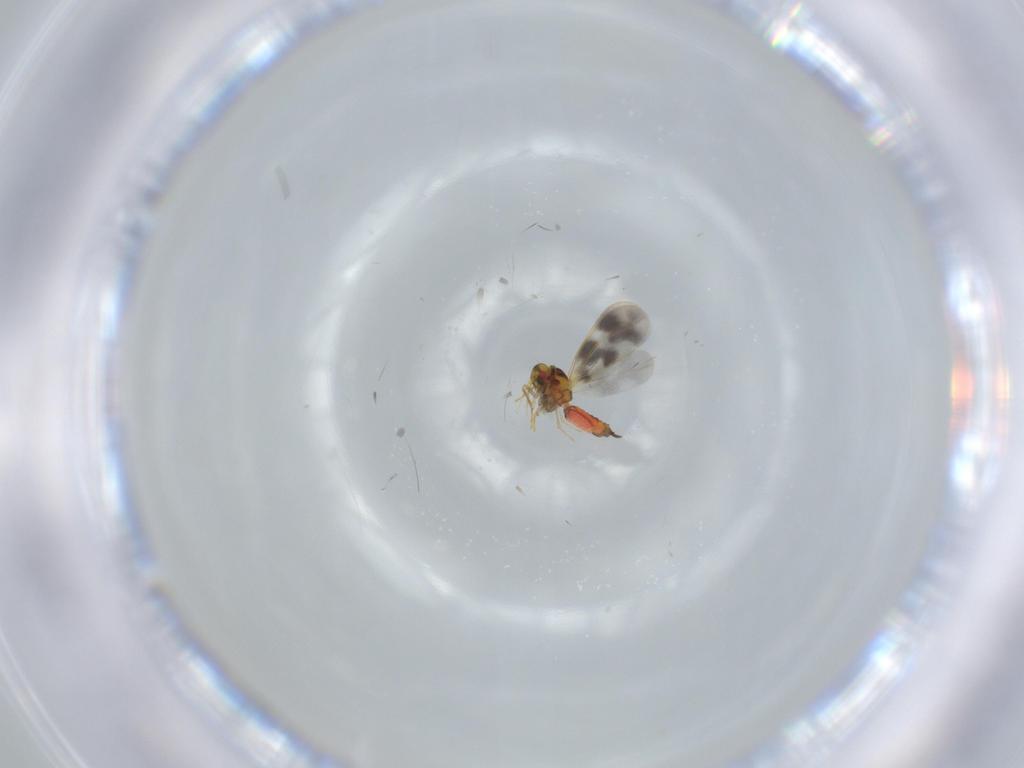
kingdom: Animalia
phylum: Arthropoda
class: Insecta
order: Hemiptera
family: Aleyrodidae
